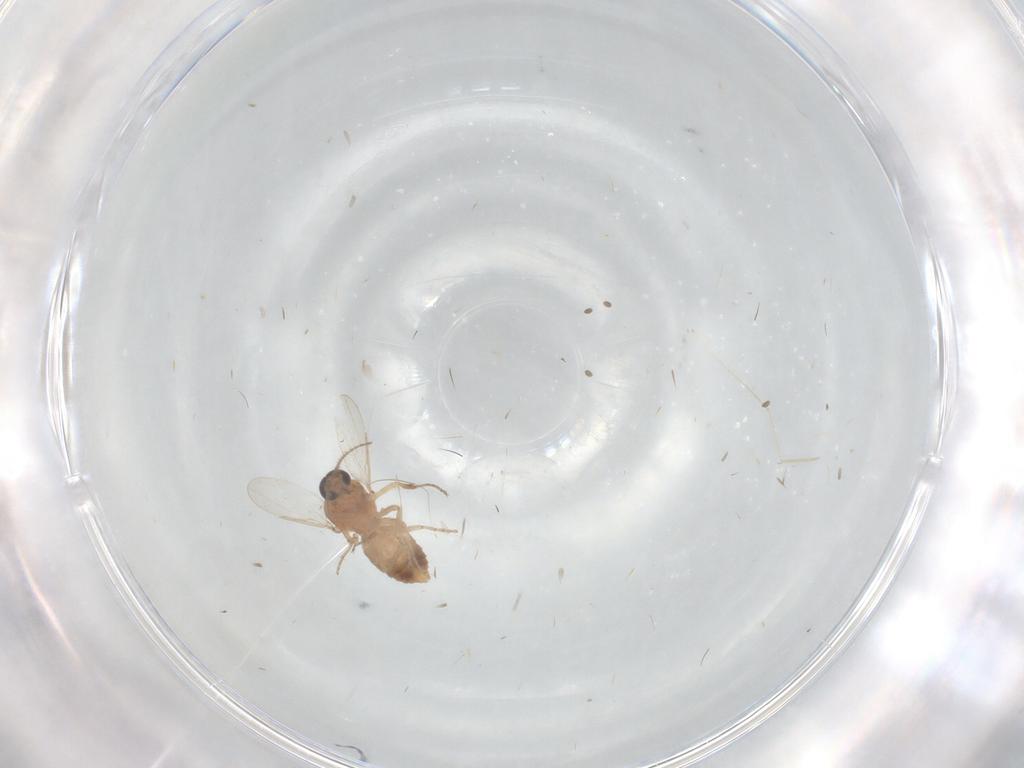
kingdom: Animalia
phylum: Arthropoda
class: Insecta
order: Diptera
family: Ceratopogonidae
